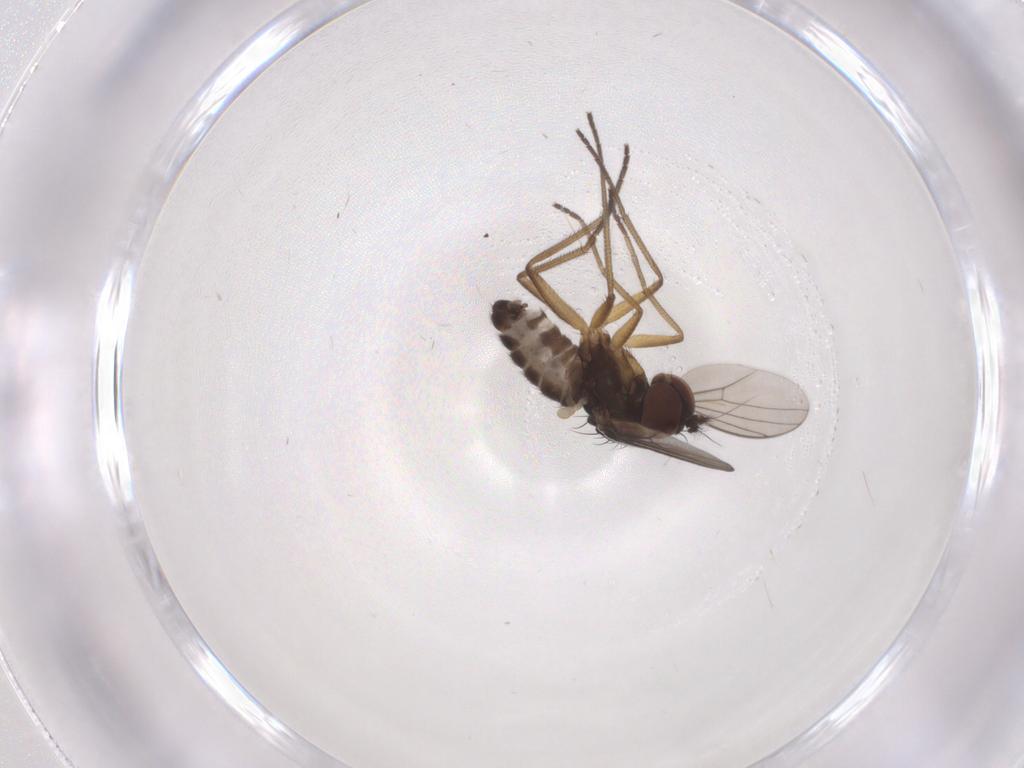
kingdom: Animalia
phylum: Arthropoda
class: Insecta
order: Diptera
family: Dolichopodidae
